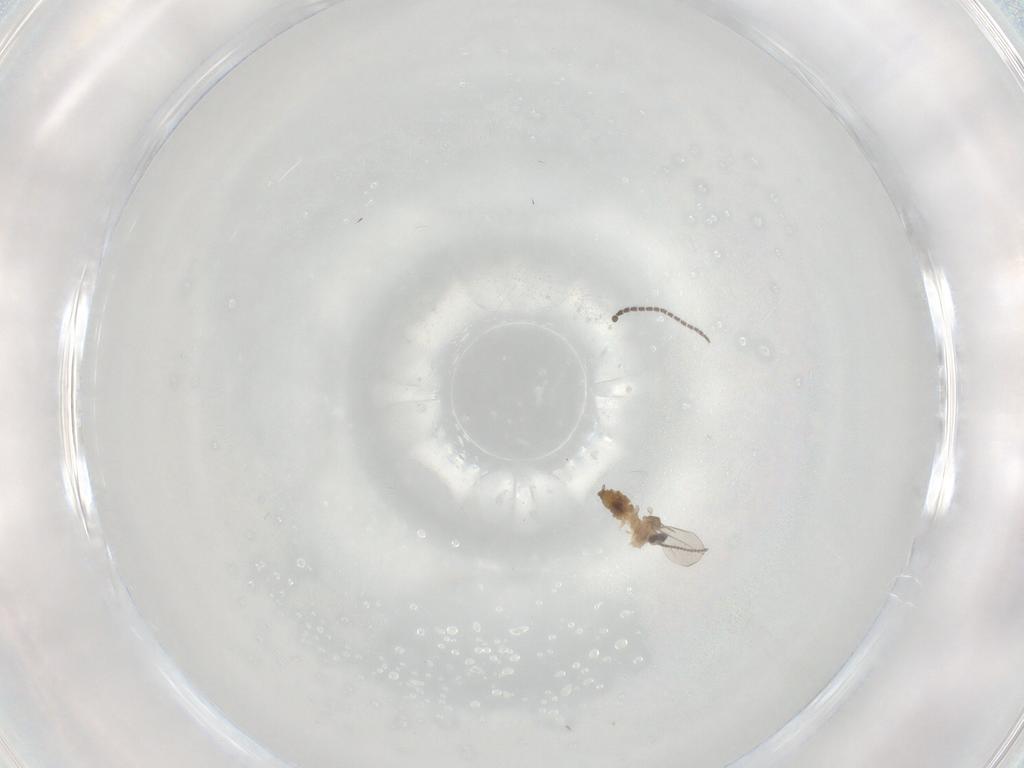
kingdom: Animalia
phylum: Arthropoda
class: Insecta
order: Diptera
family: Sciaridae
